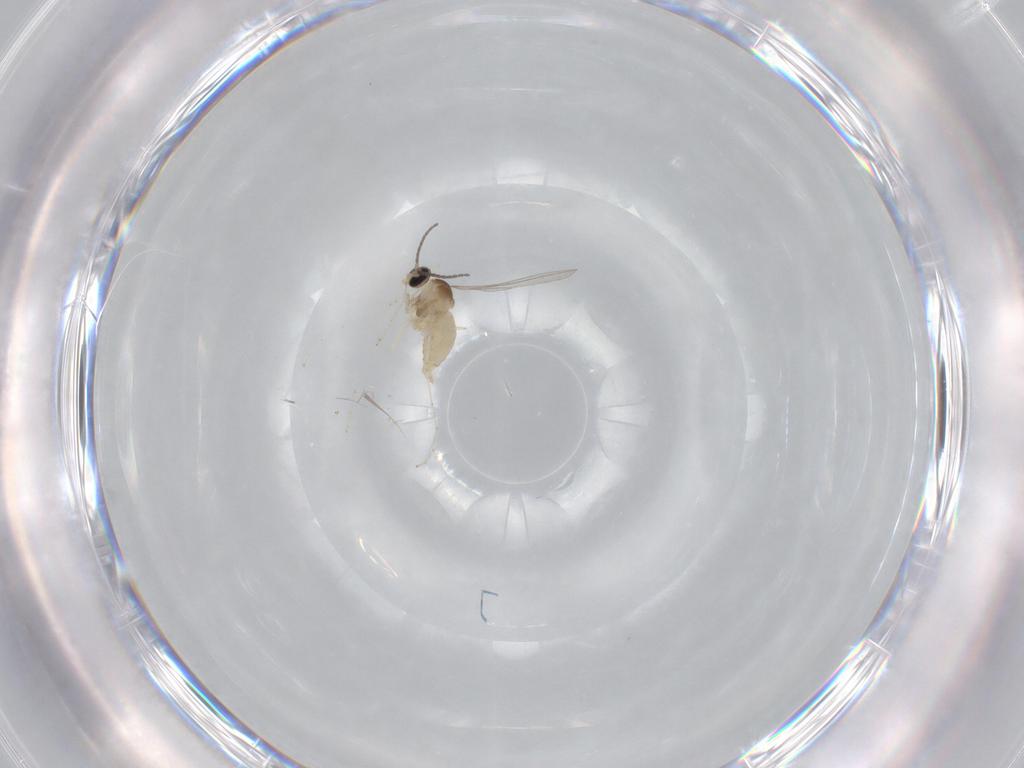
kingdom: Animalia
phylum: Arthropoda
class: Insecta
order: Diptera
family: Cecidomyiidae
